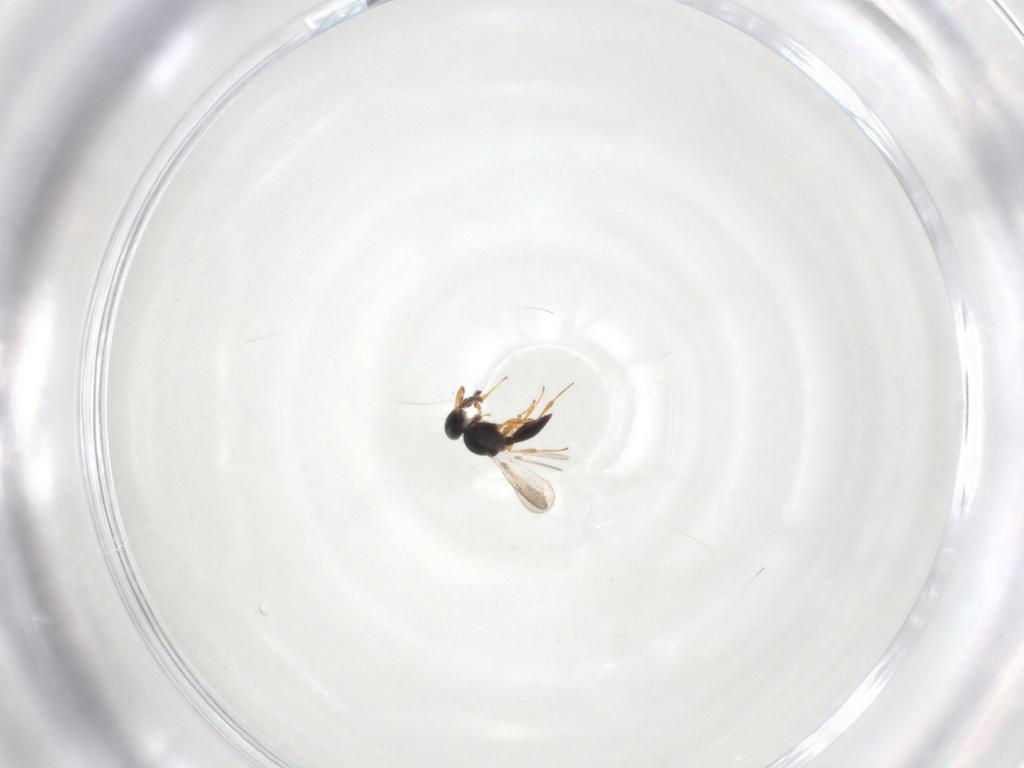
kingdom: Animalia
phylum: Arthropoda
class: Insecta
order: Hymenoptera
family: Platygastridae
